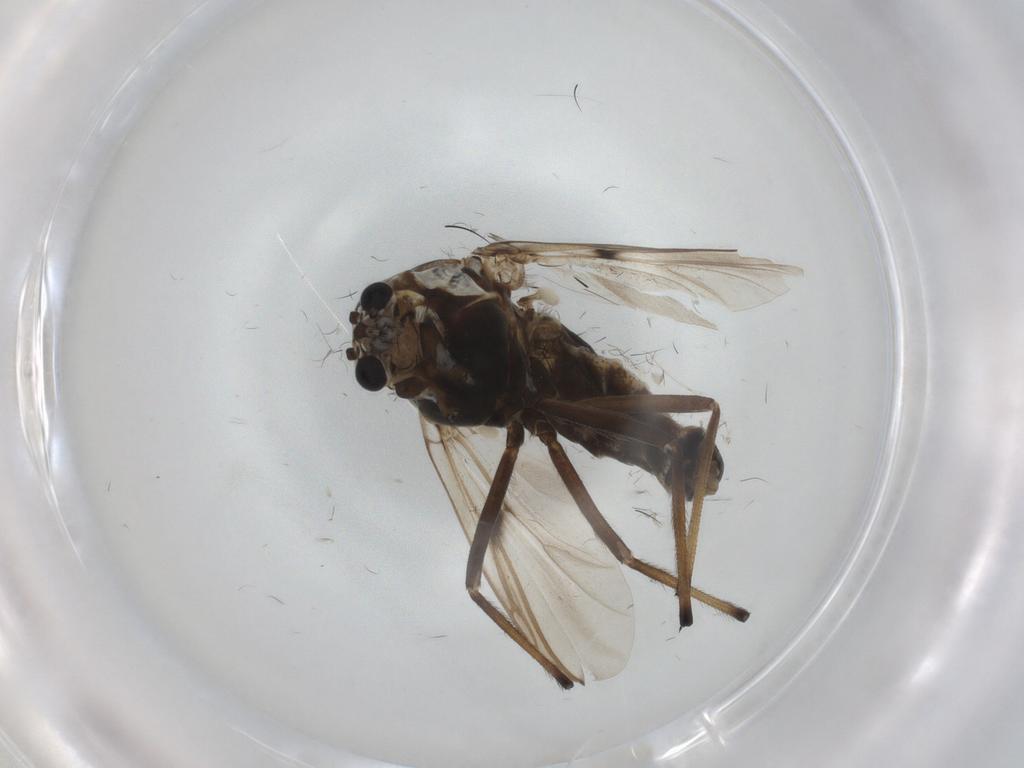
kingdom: Animalia
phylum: Arthropoda
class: Insecta
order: Diptera
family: Chironomidae
